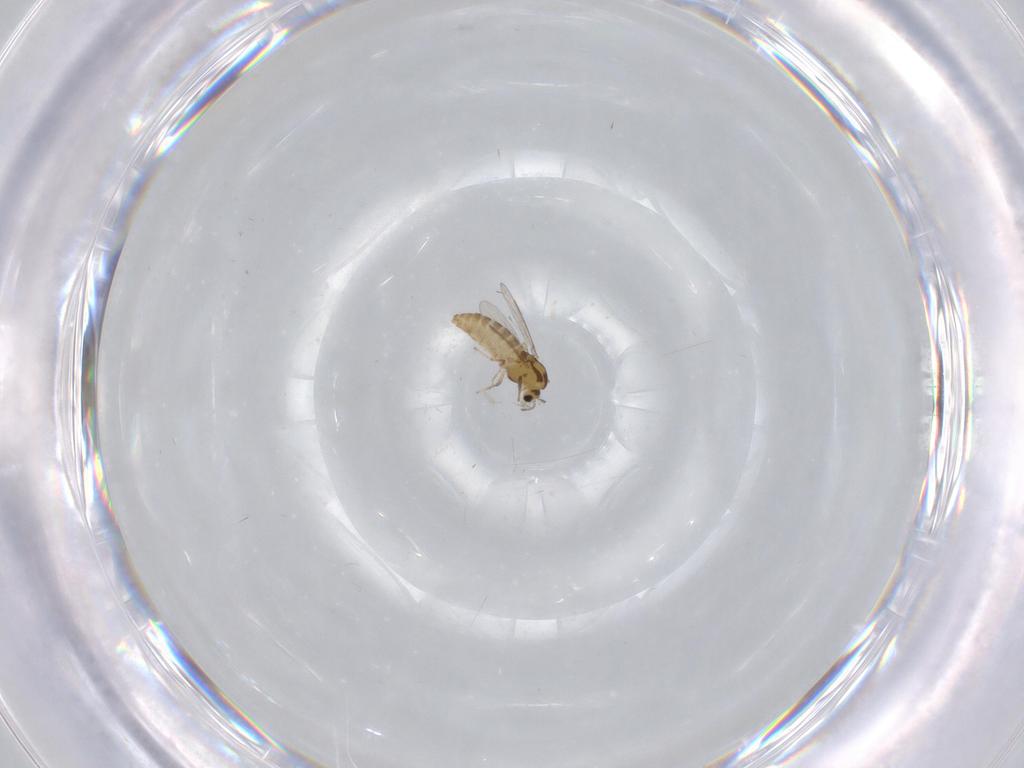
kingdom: Animalia
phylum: Arthropoda
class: Insecta
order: Diptera
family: Chironomidae
